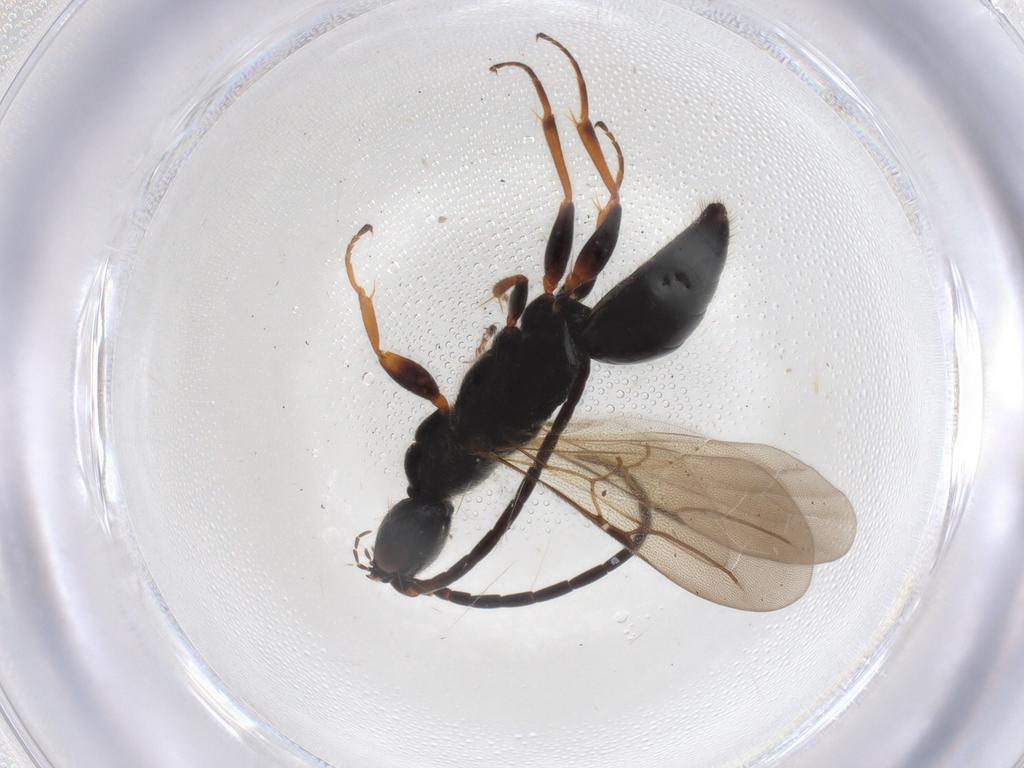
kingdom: Animalia
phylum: Arthropoda
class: Insecta
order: Hymenoptera
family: Bethylidae
